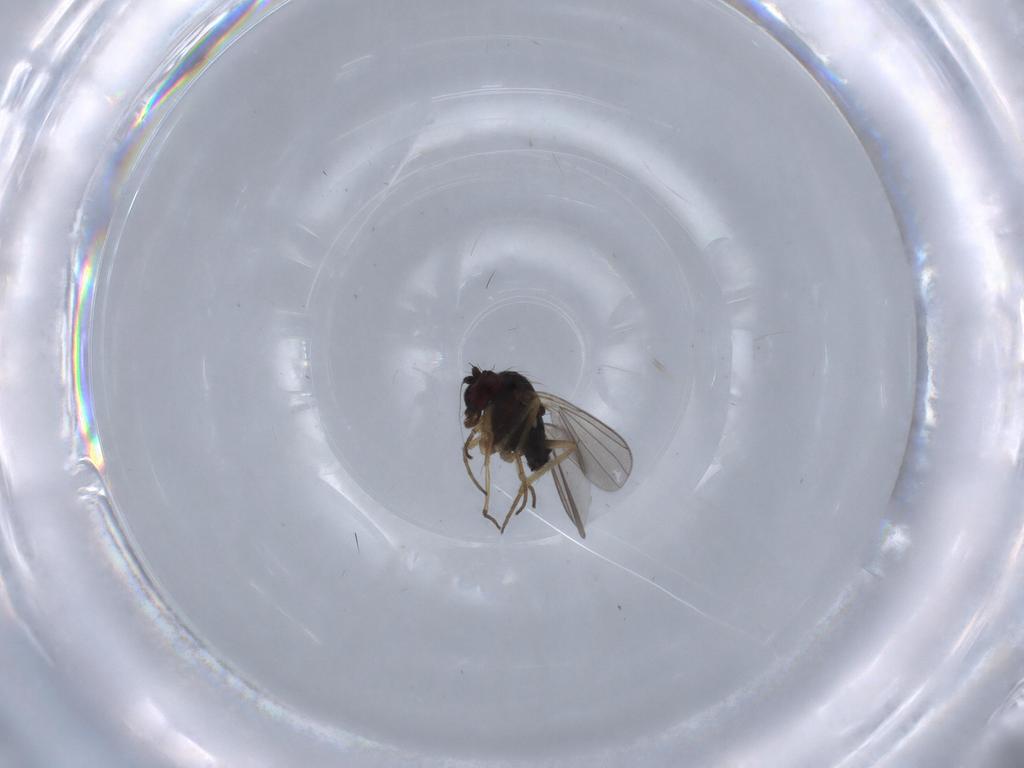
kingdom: Animalia
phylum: Arthropoda
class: Insecta
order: Diptera
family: Dolichopodidae
